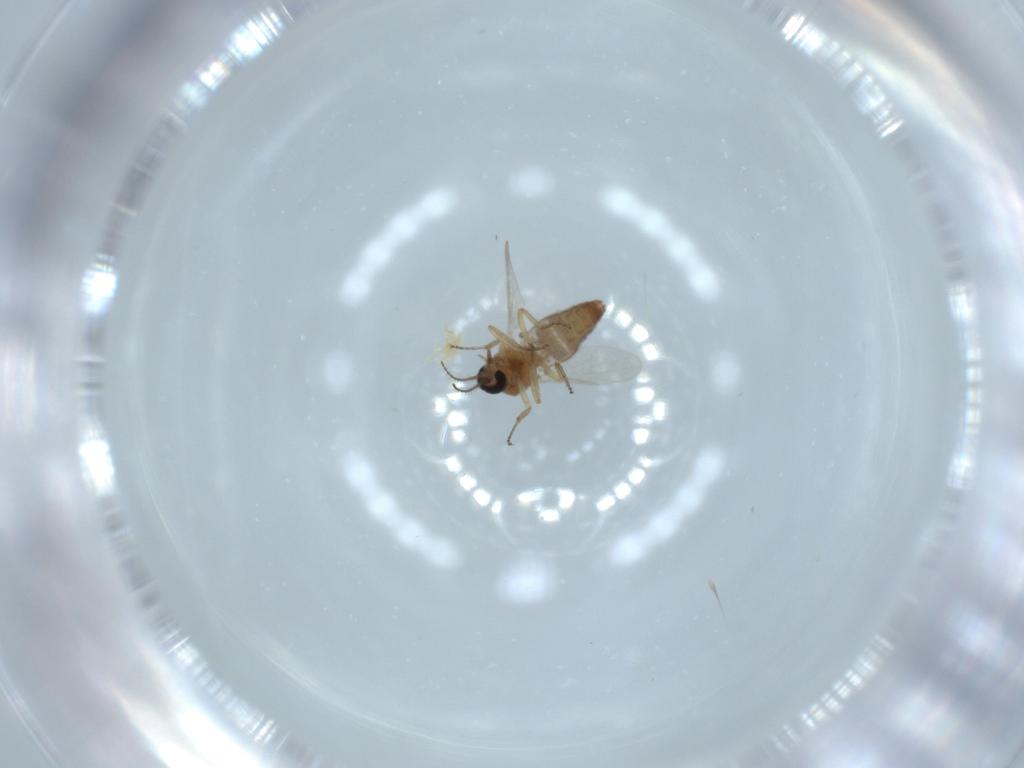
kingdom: Animalia
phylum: Arthropoda
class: Insecta
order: Diptera
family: Ceratopogonidae
